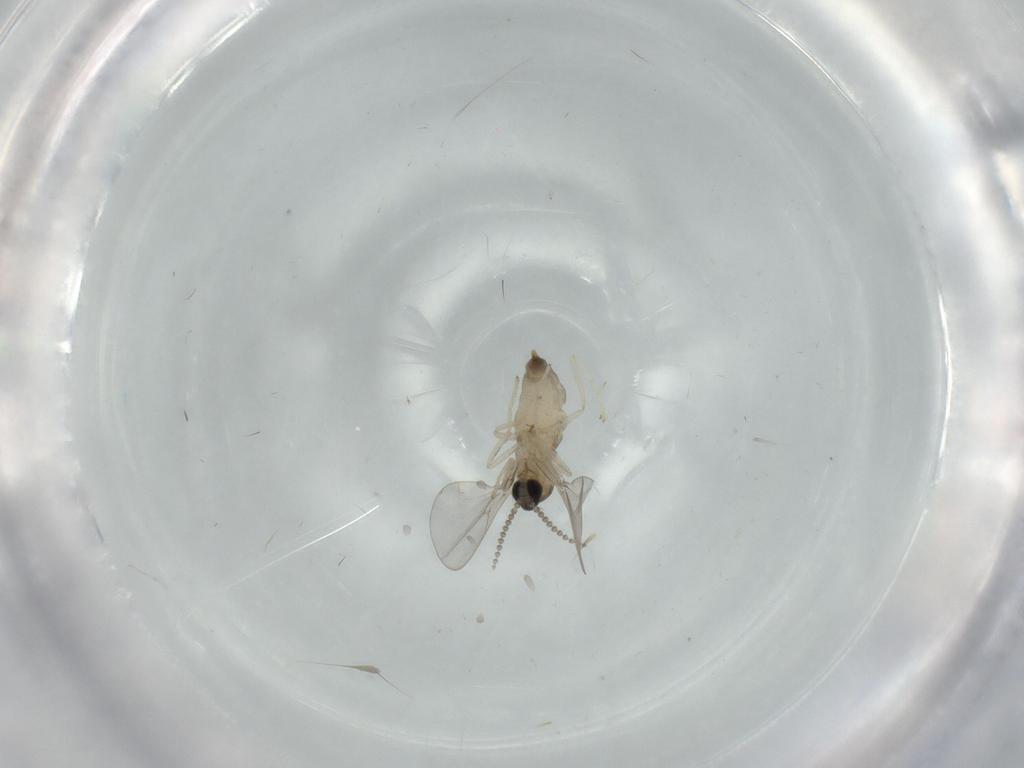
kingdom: Animalia
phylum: Arthropoda
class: Insecta
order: Diptera
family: Cecidomyiidae
